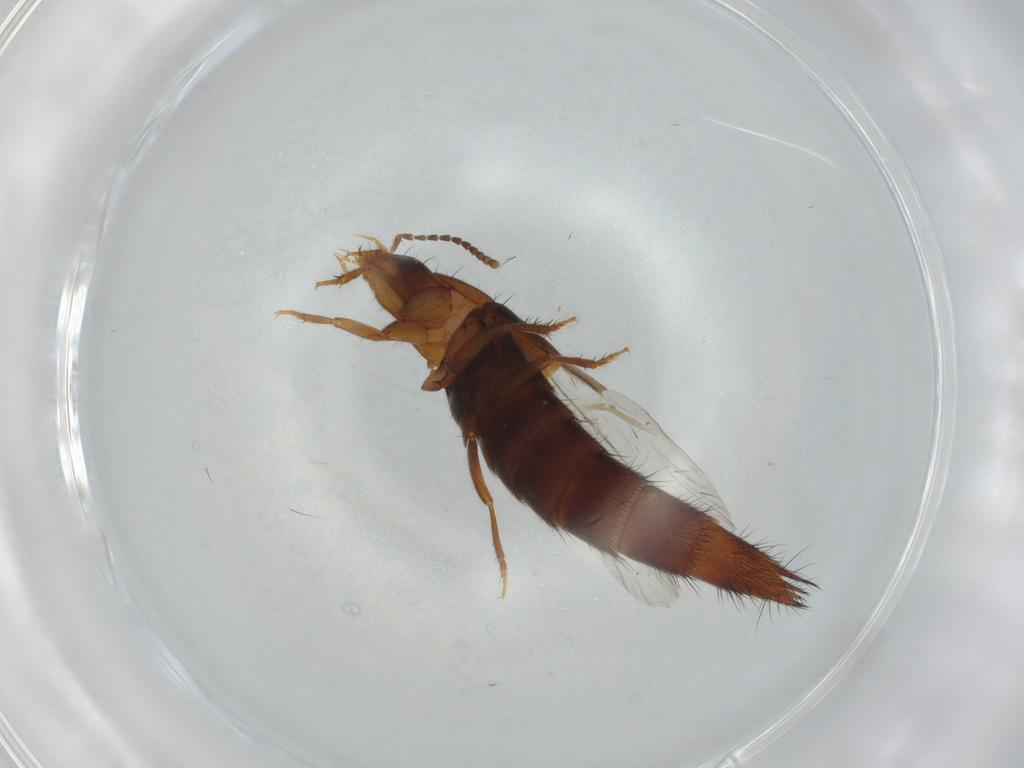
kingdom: Animalia
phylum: Arthropoda
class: Insecta
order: Coleoptera
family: Staphylinidae
